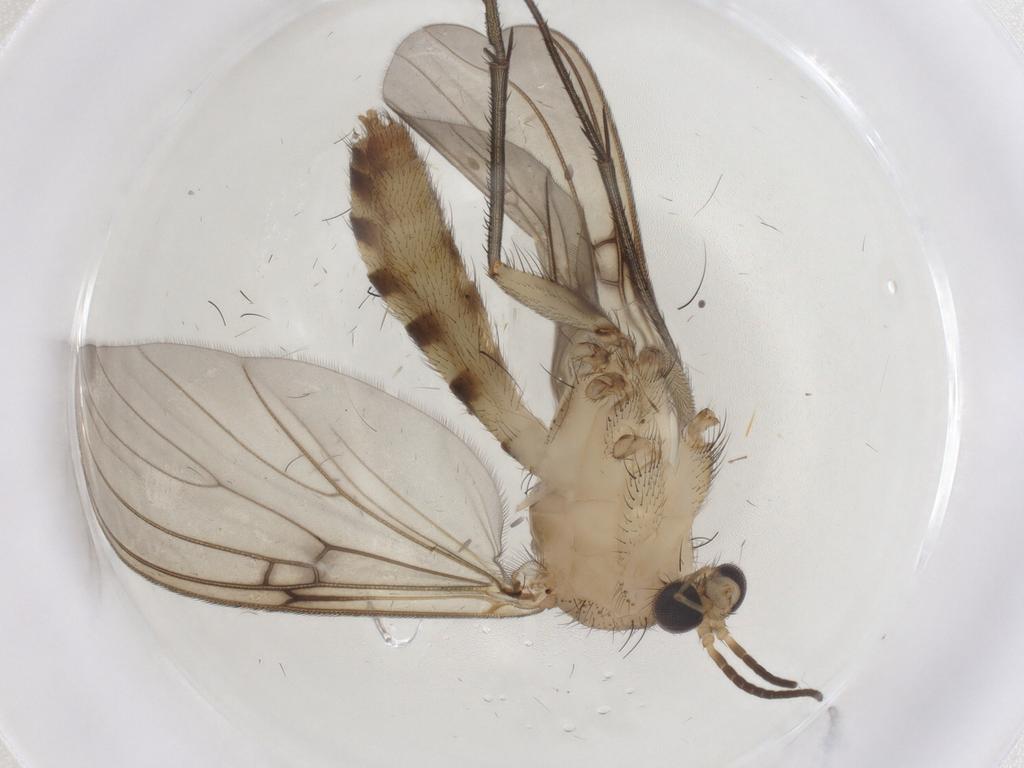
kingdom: Animalia
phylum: Arthropoda
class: Insecta
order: Diptera
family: Mycetophilidae
